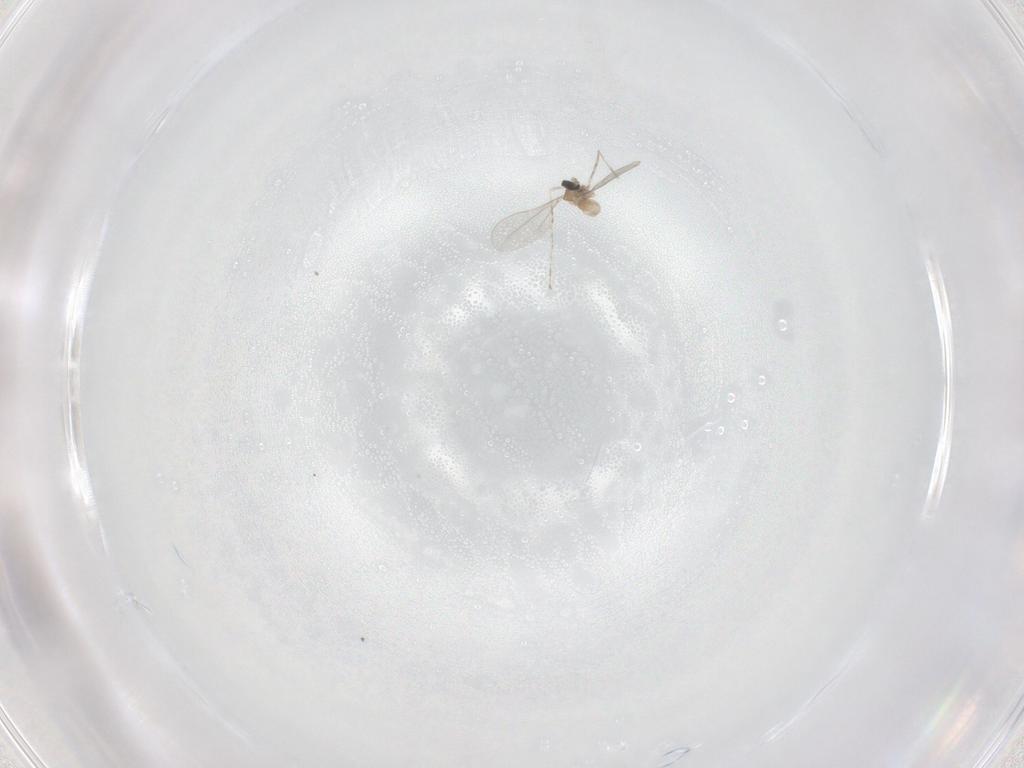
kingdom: Animalia
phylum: Arthropoda
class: Insecta
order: Diptera
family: Cecidomyiidae
